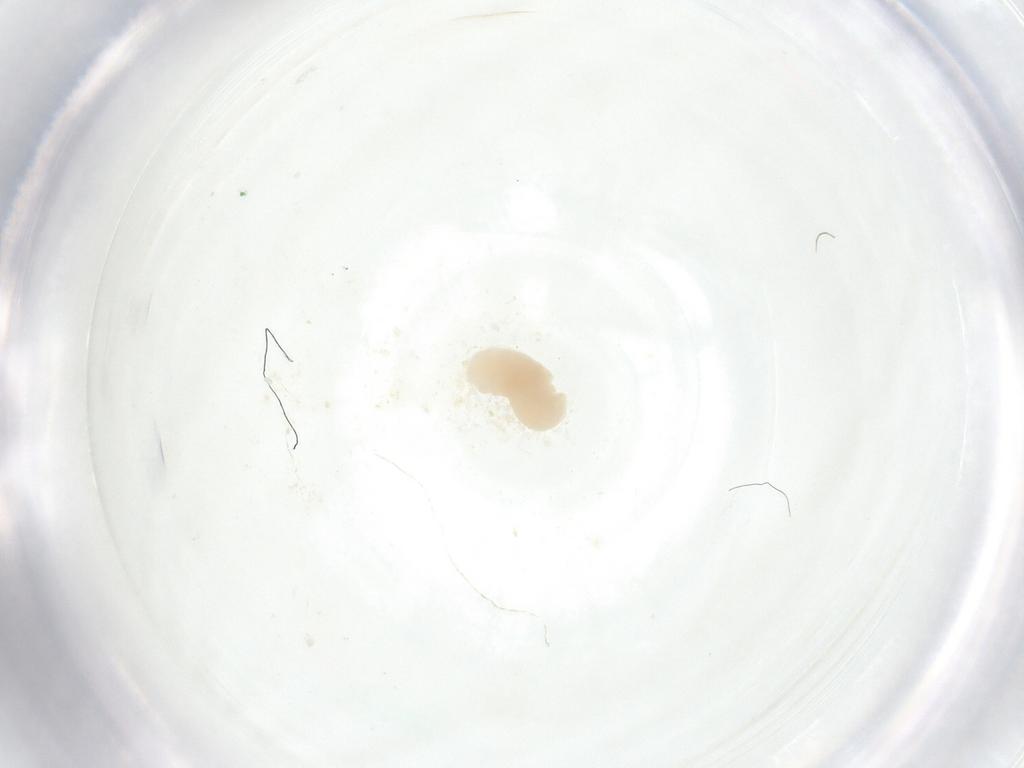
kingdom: Animalia
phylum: Arthropoda
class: Insecta
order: Diptera
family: Fergusoninidae
